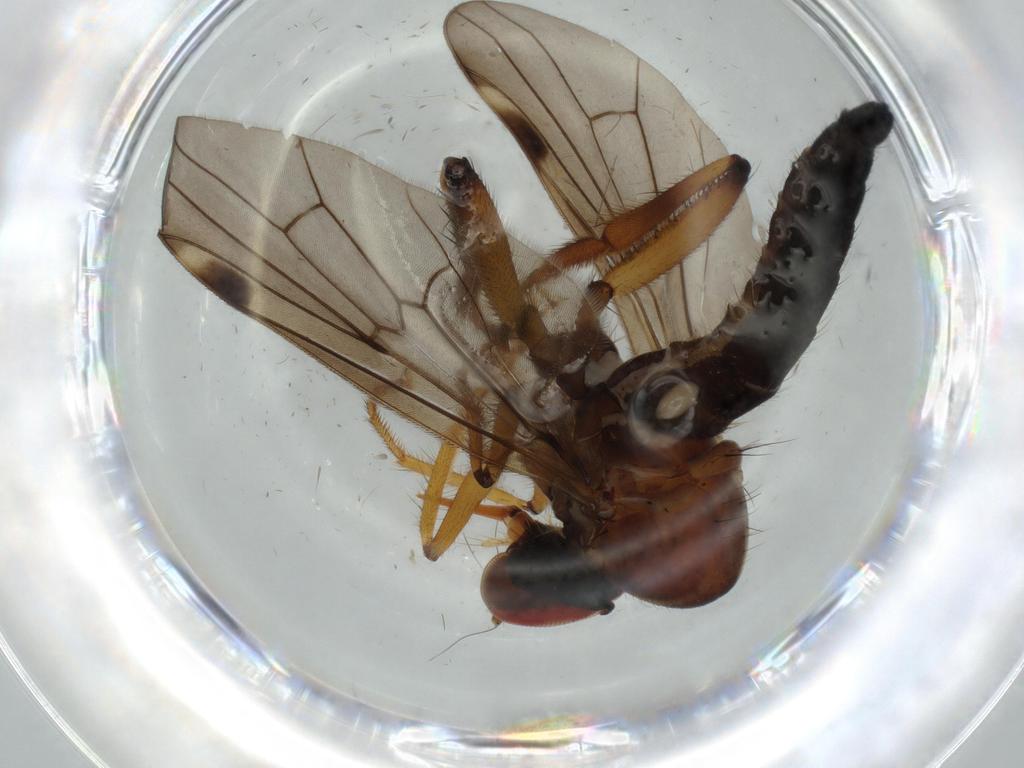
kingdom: Animalia
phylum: Arthropoda
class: Insecta
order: Diptera
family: Hybotidae
